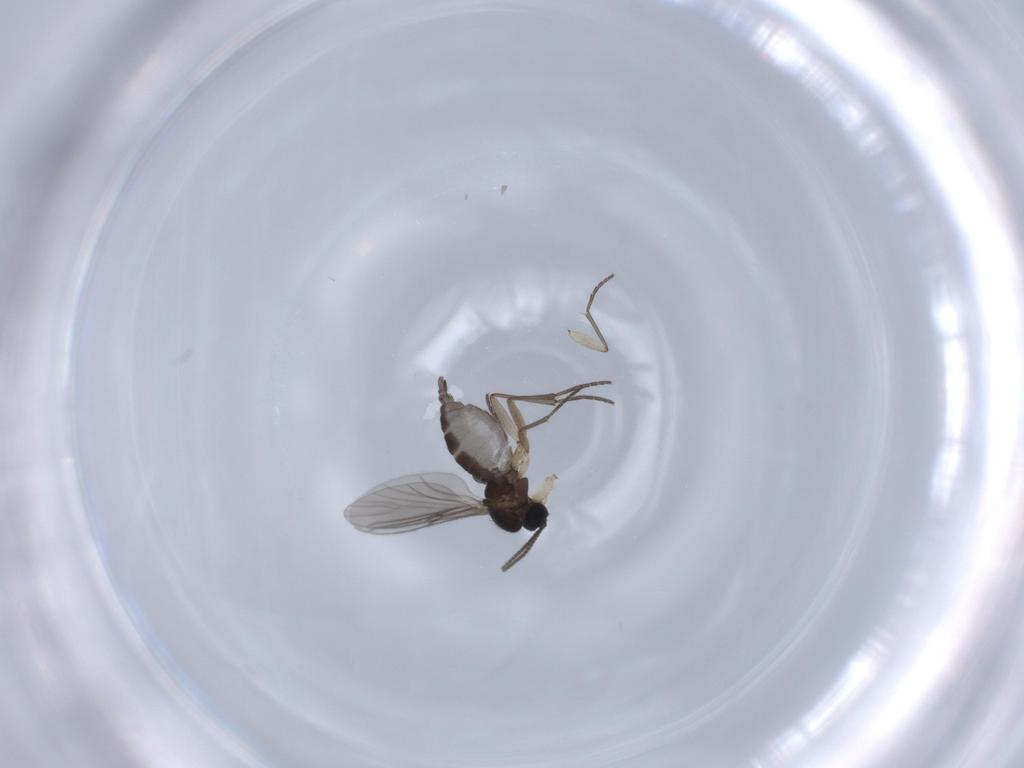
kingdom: Animalia
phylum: Arthropoda
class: Insecta
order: Diptera
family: Sciaridae
